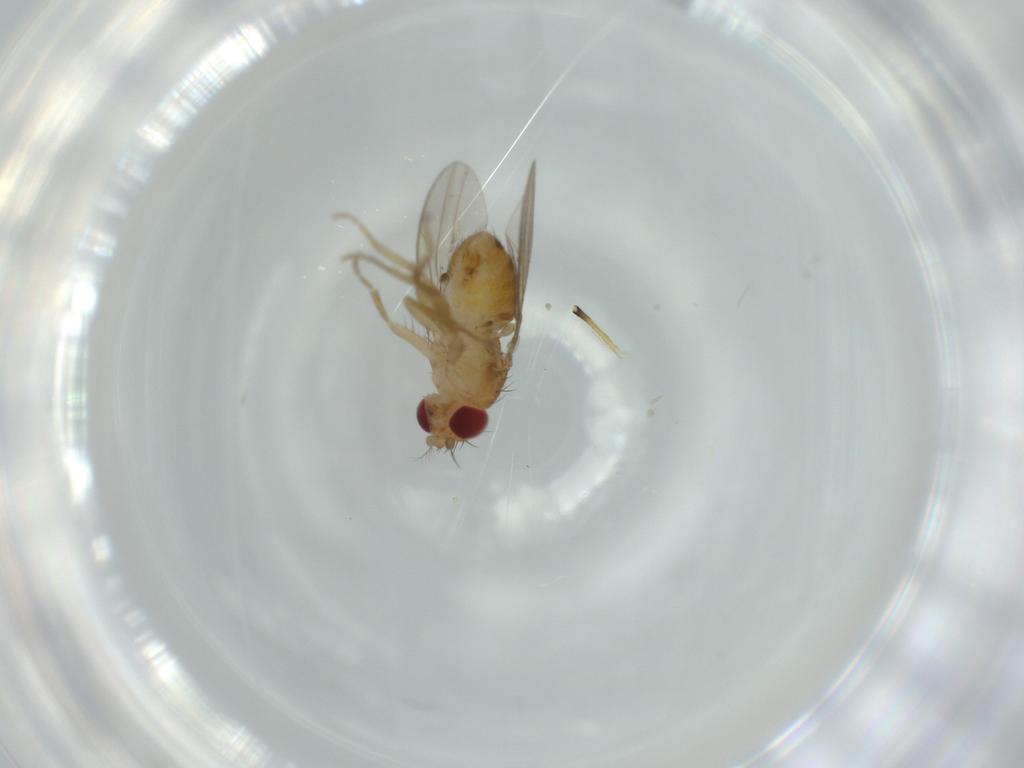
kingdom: Animalia
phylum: Arthropoda
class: Insecta
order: Diptera
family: Drosophilidae
